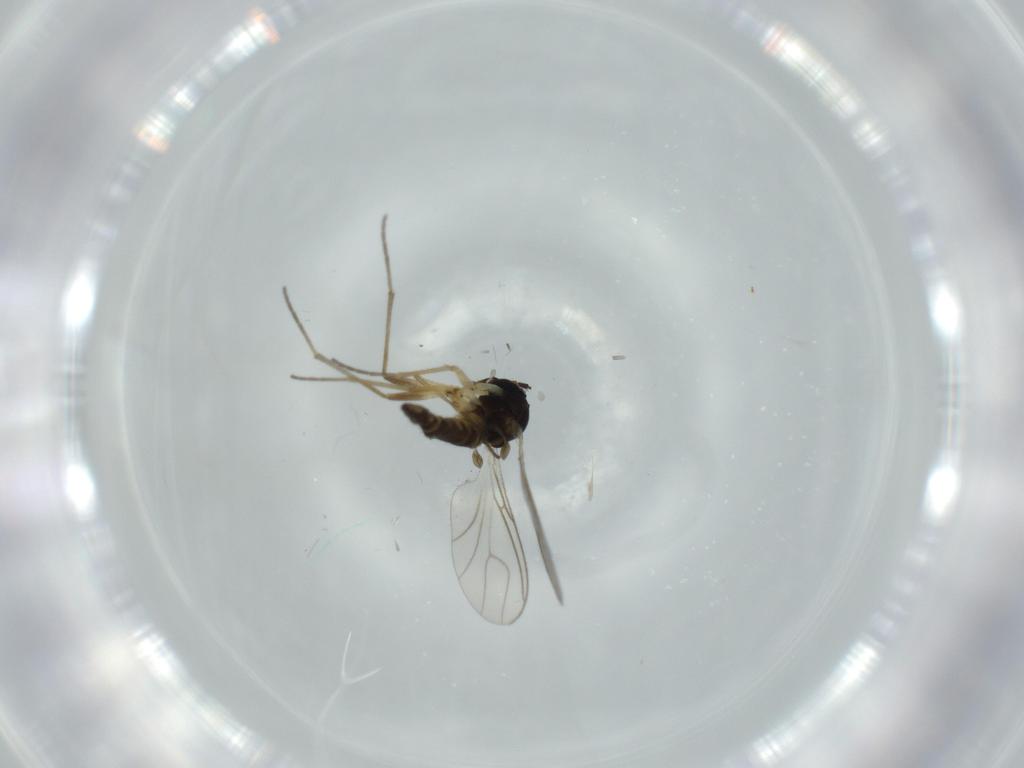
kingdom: Animalia
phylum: Arthropoda
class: Insecta
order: Diptera
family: Sciaridae
